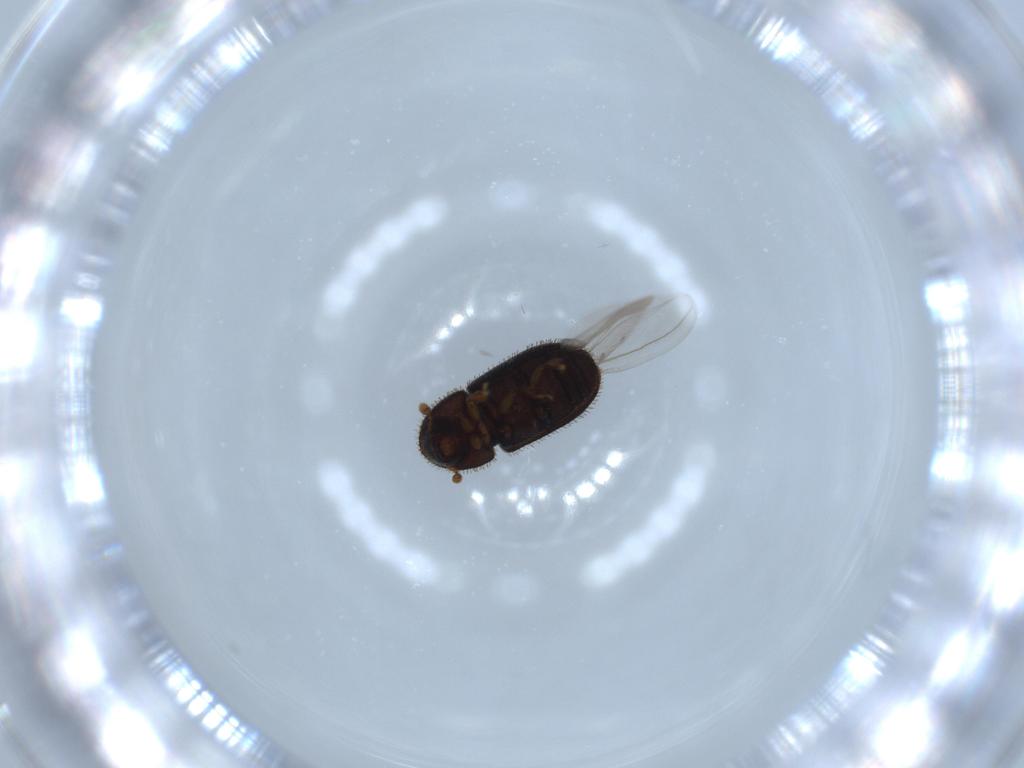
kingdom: Animalia
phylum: Arthropoda
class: Insecta
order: Coleoptera
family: Curculionidae
